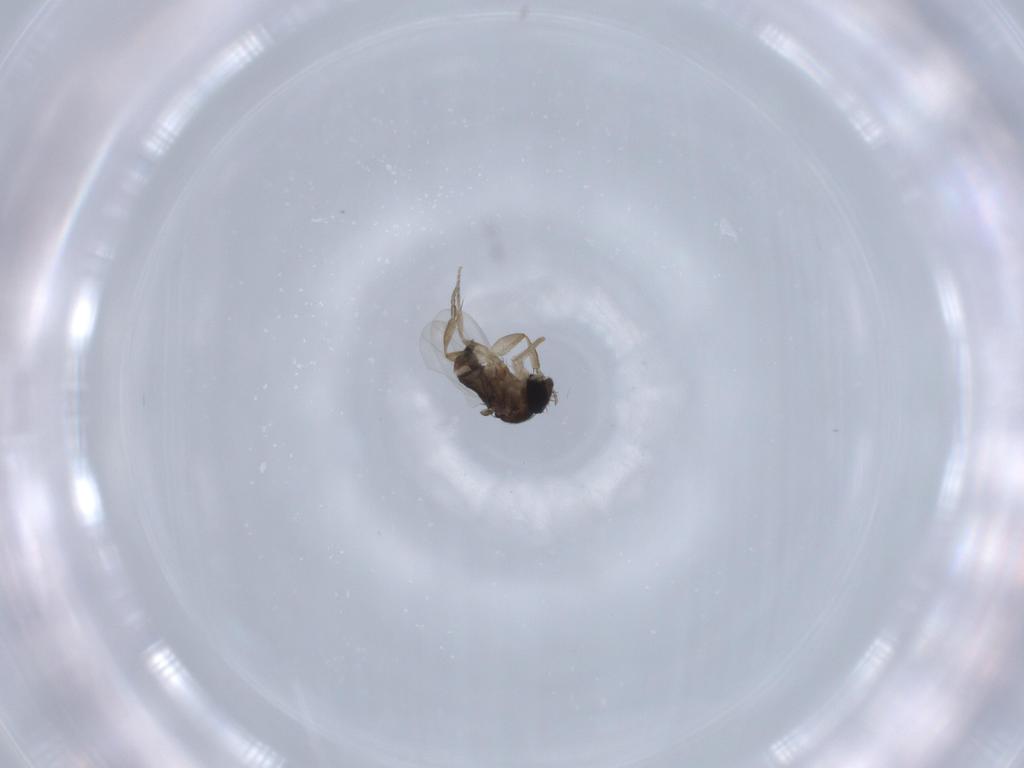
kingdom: Animalia
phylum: Arthropoda
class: Insecta
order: Diptera
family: Phoridae
